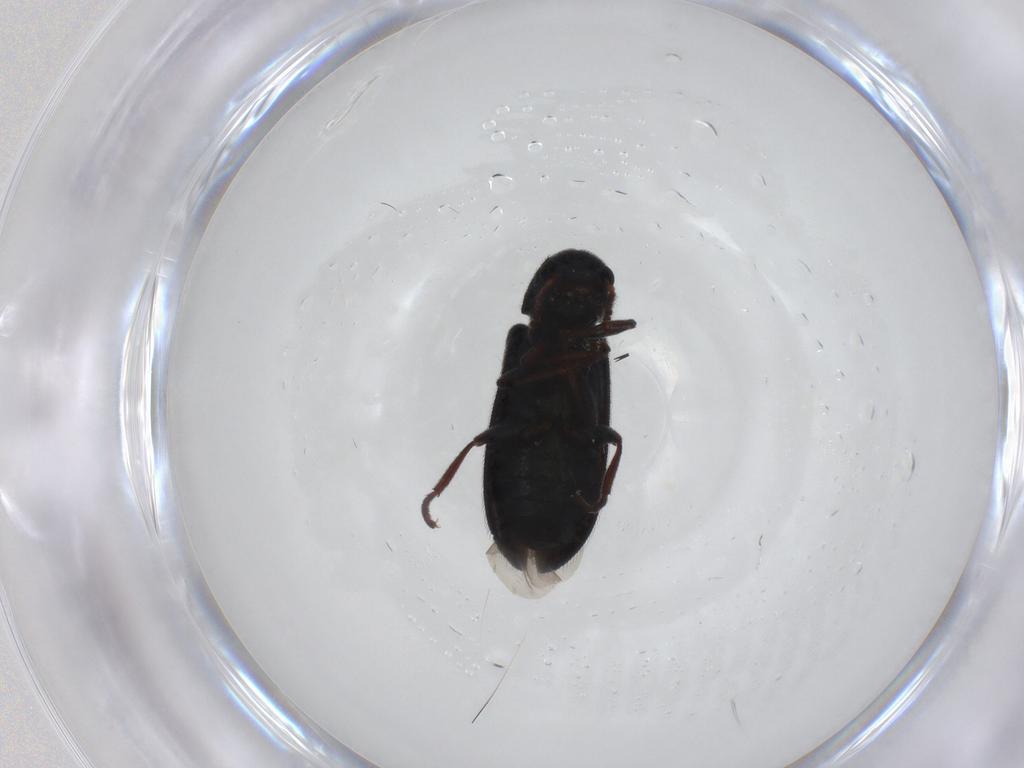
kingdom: Animalia
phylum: Arthropoda
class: Insecta
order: Coleoptera
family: Melyridae
